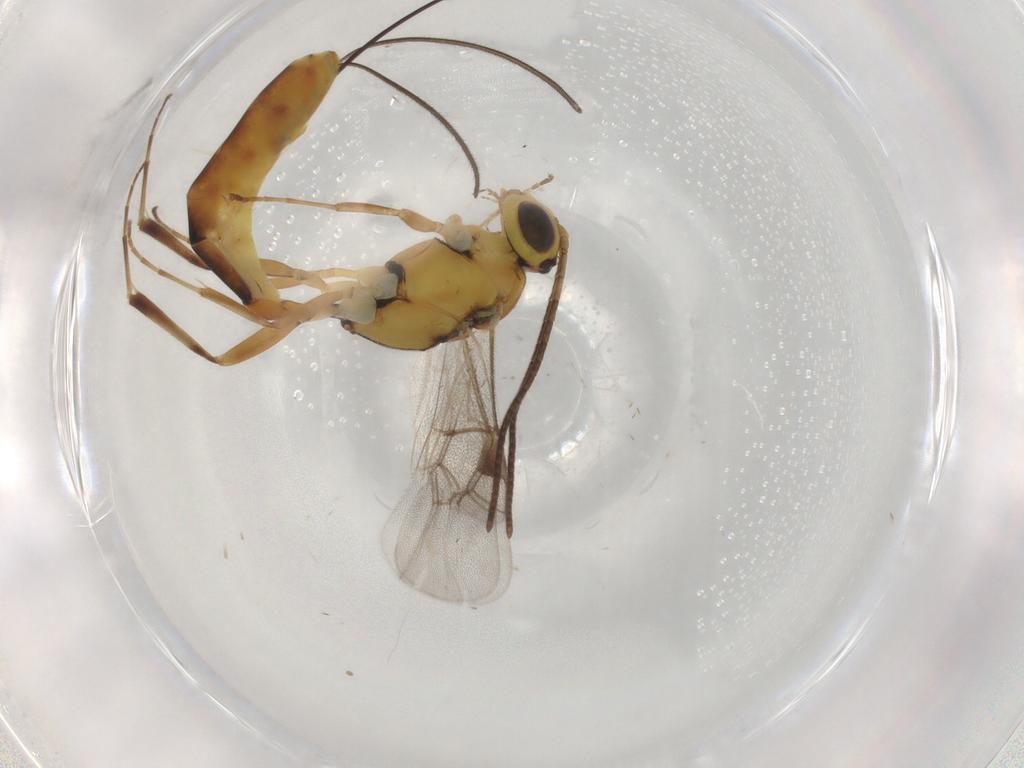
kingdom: Animalia
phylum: Arthropoda
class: Insecta
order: Hymenoptera
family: Ichneumonidae
